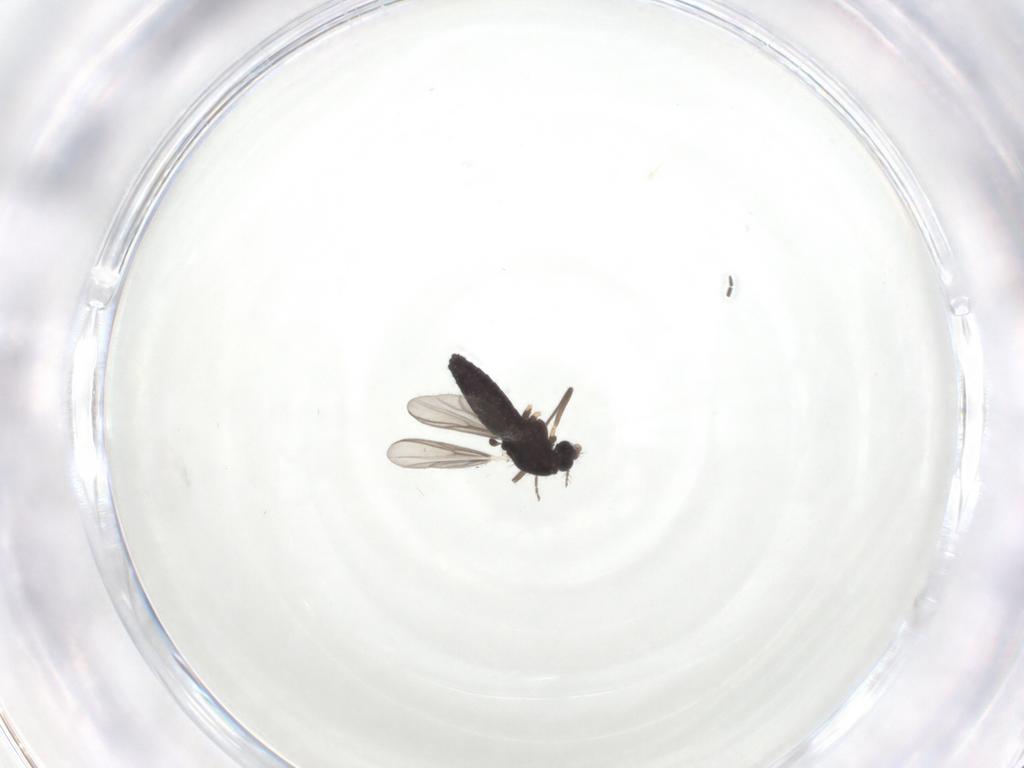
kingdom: Animalia
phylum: Arthropoda
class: Insecta
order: Diptera
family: Chironomidae
